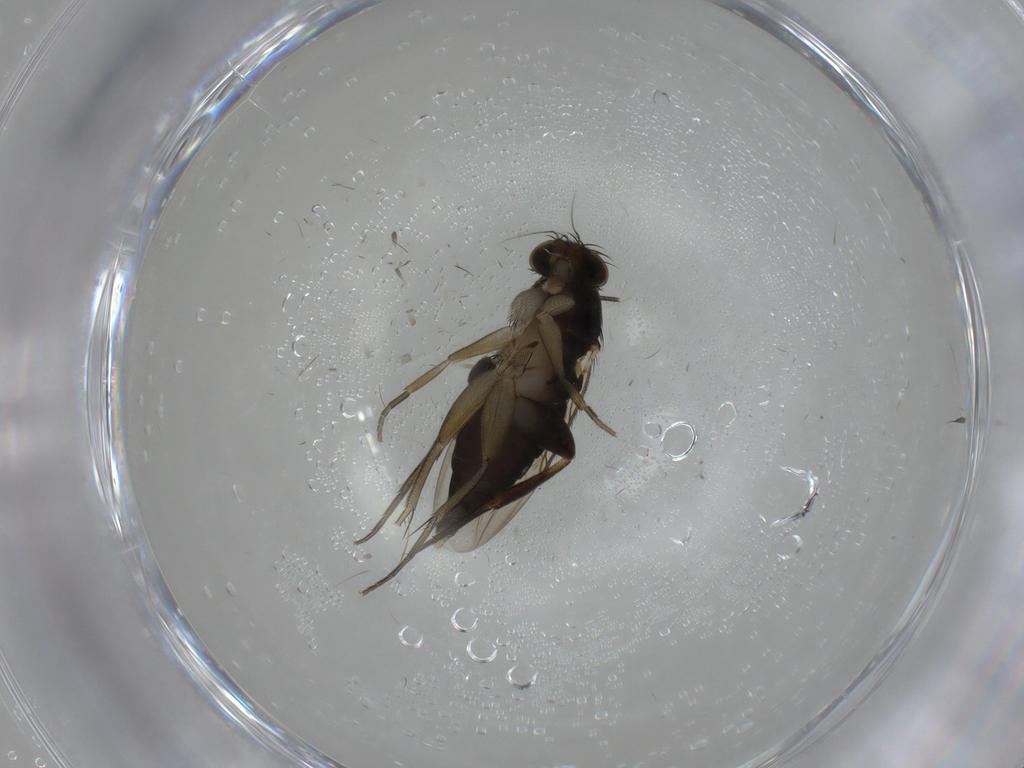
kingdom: Animalia
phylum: Arthropoda
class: Insecta
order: Diptera
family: Phoridae
